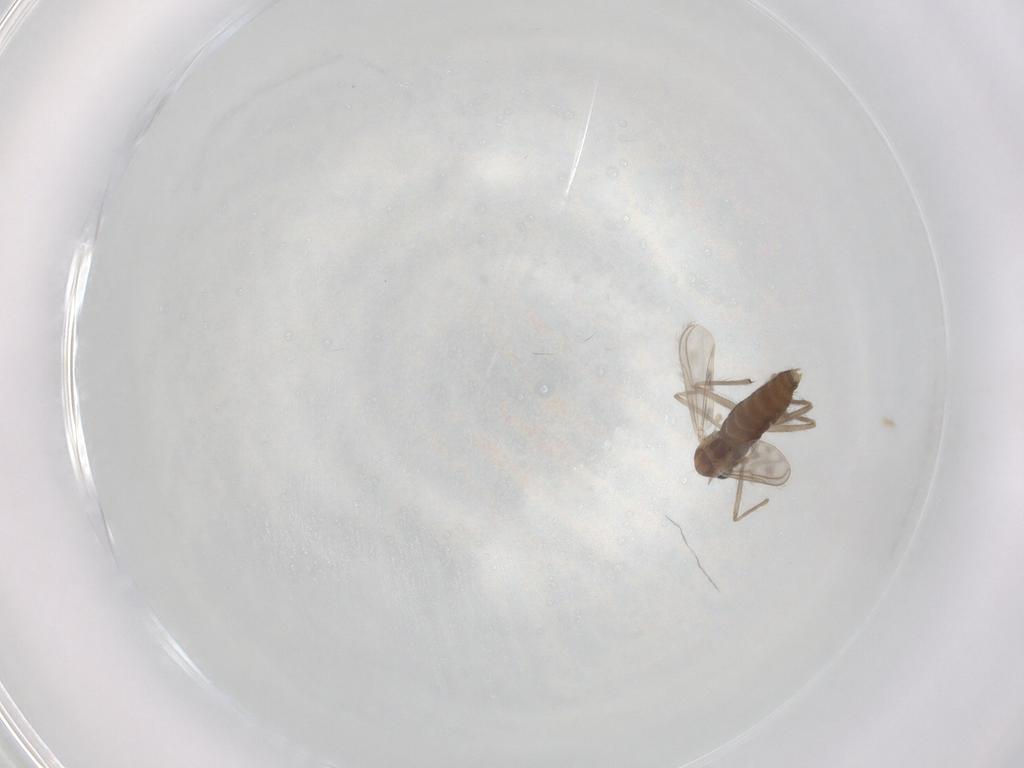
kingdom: Animalia
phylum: Arthropoda
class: Insecta
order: Diptera
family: Chironomidae
